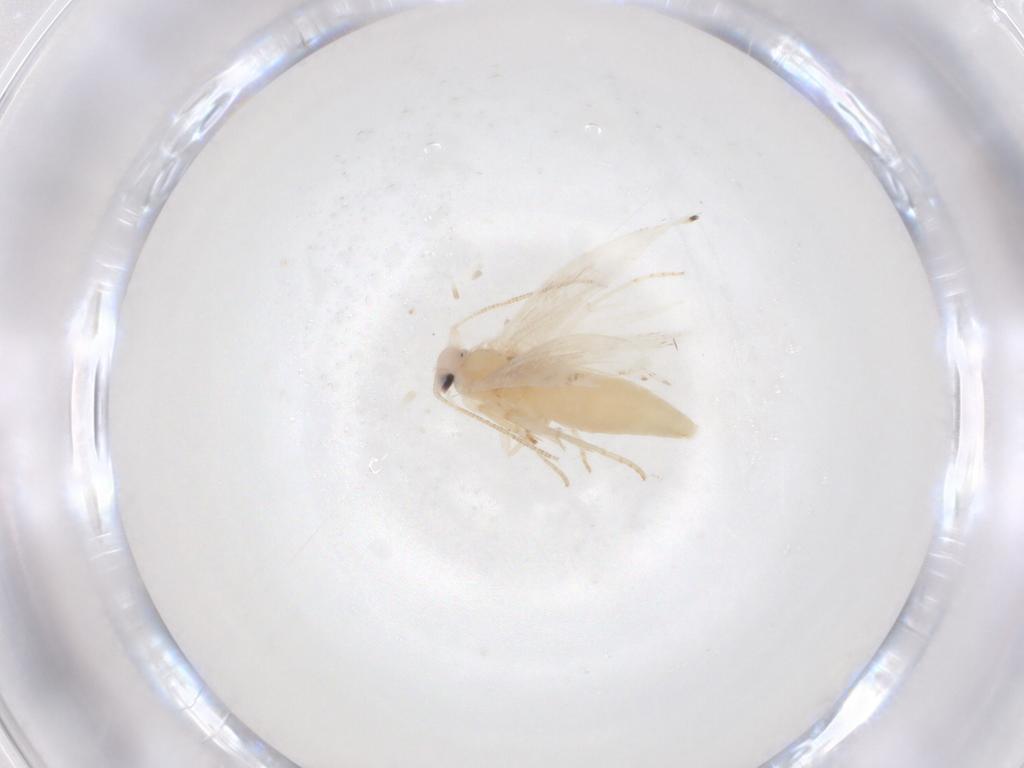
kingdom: Animalia
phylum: Arthropoda
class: Insecta
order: Lepidoptera
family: Gracillariidae
